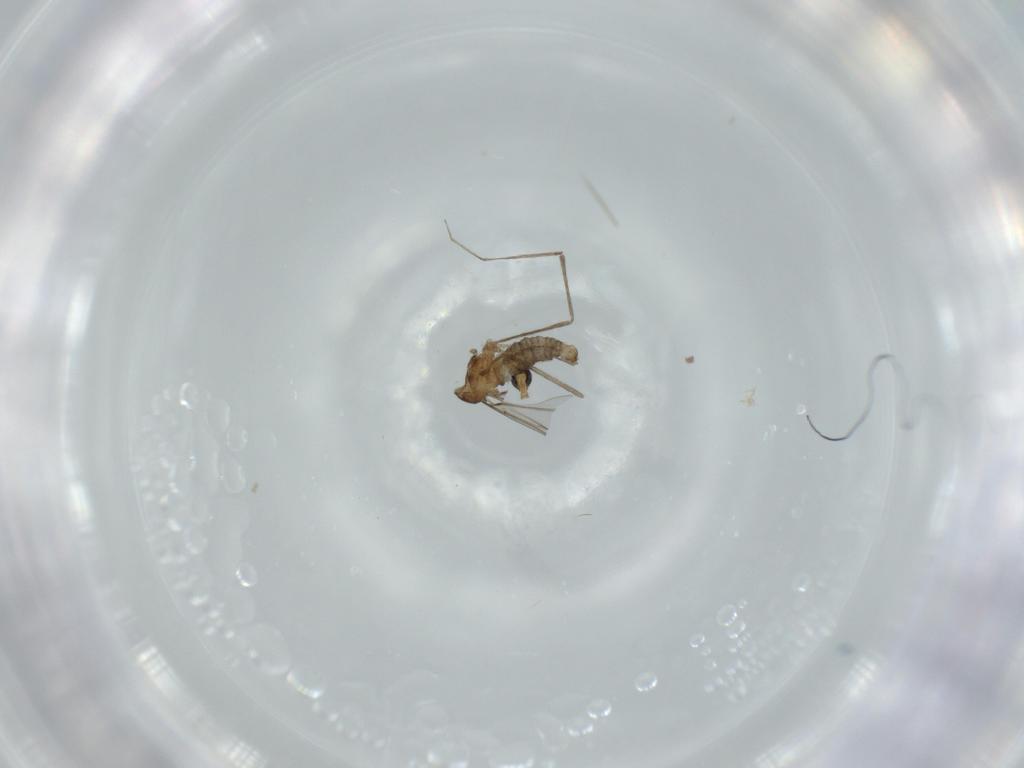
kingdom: Animalia
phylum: Arthropoda
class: Insecta
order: Diptera
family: Cecidomyiidae
